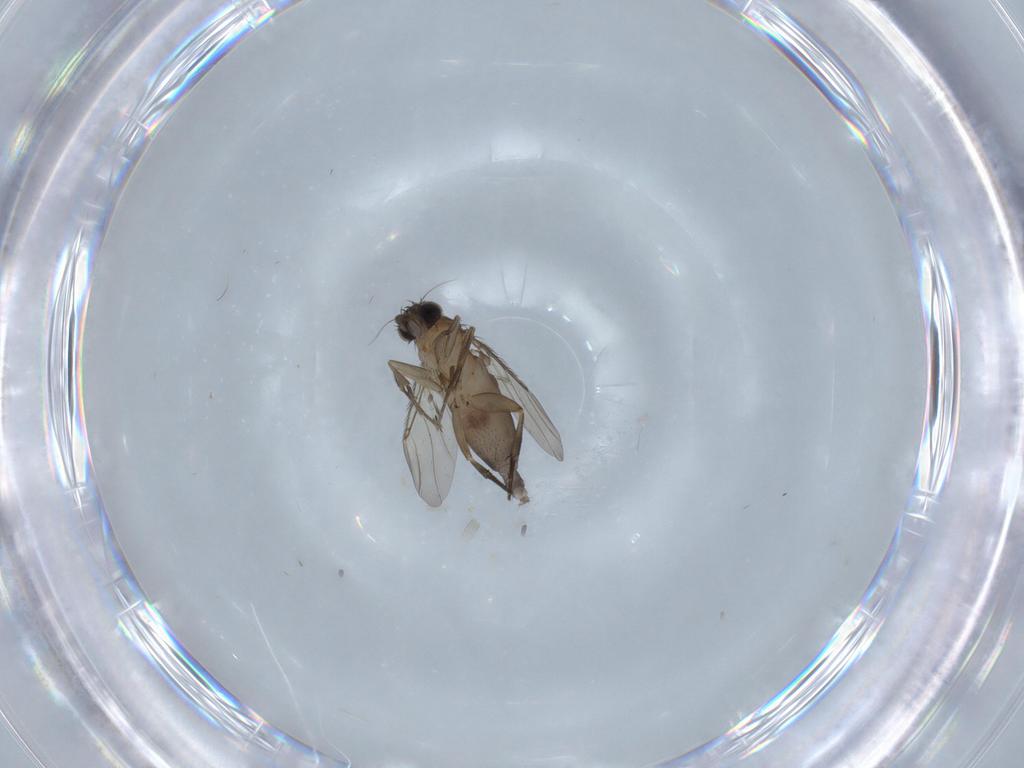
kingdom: Animalia
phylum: Arthropoda
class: Insecta
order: Diptera
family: Phoridae
